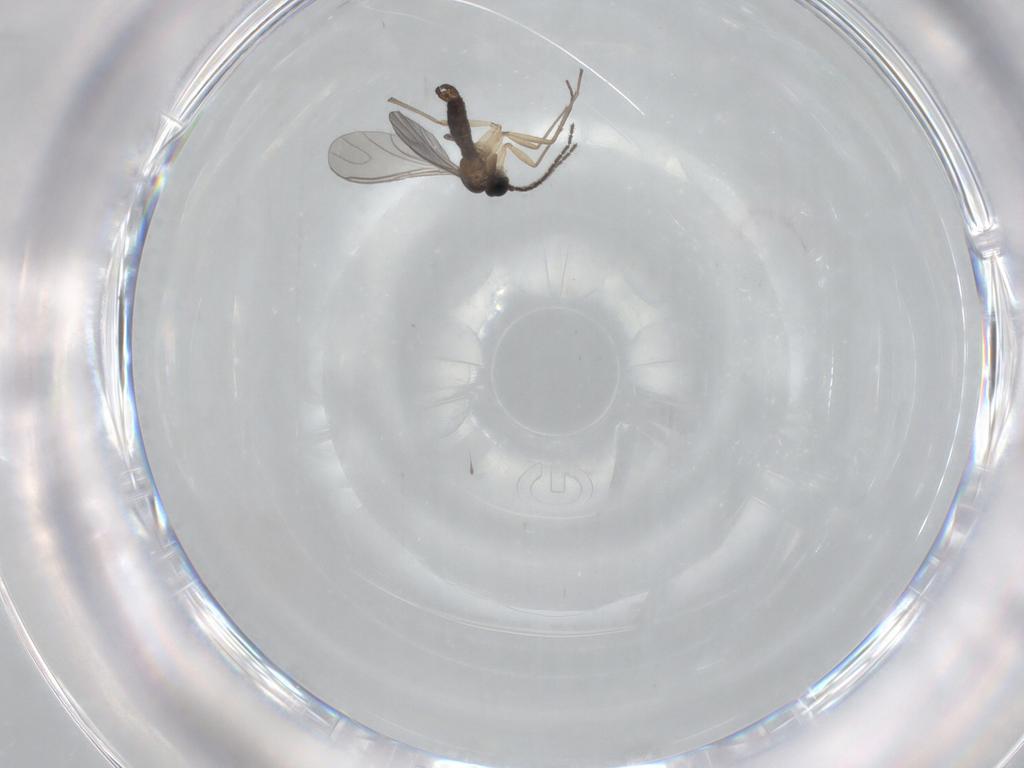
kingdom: Animalia
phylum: Arthropoda
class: Insecta
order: Diptera
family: Sciaridae
